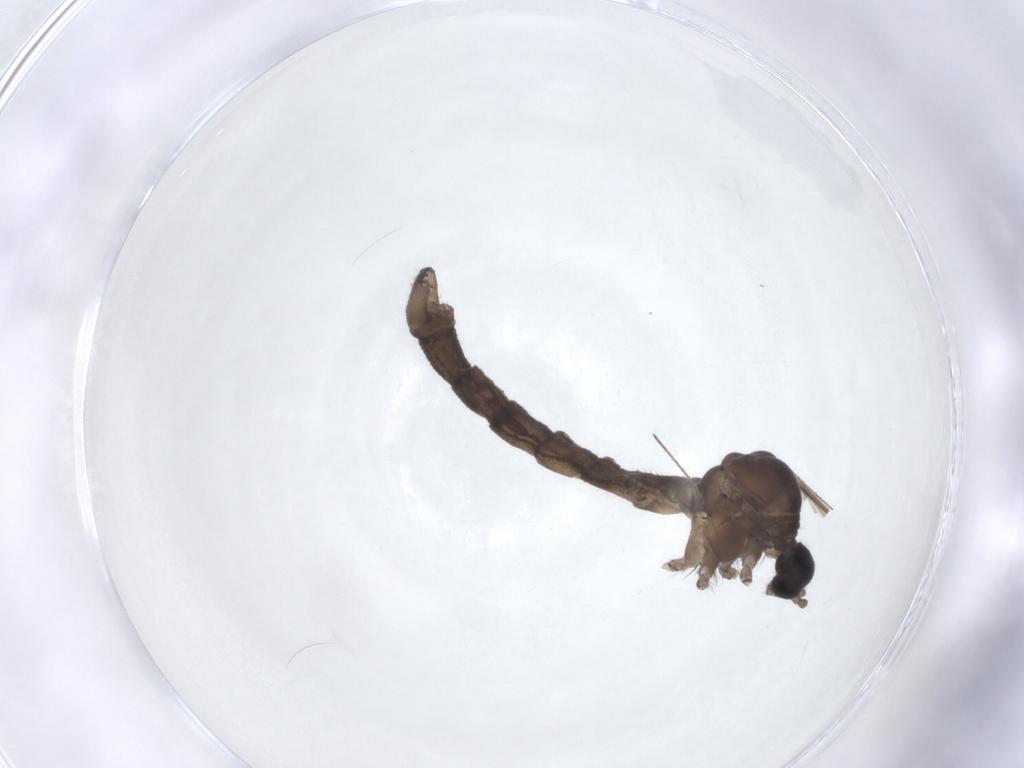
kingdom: Animalia
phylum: Arthropoda
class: Insecta
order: Diptera
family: Limoniidae
